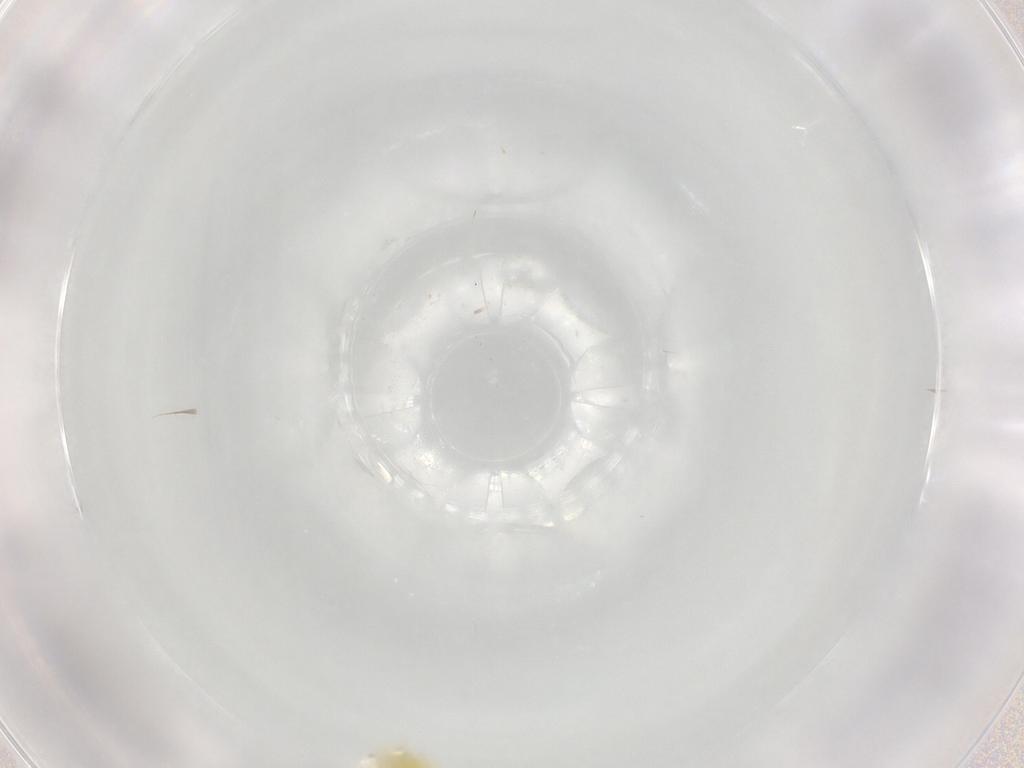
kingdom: Animalia
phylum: Arthropoda
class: Insecta
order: Hemiptera
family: Aleyrodidae
